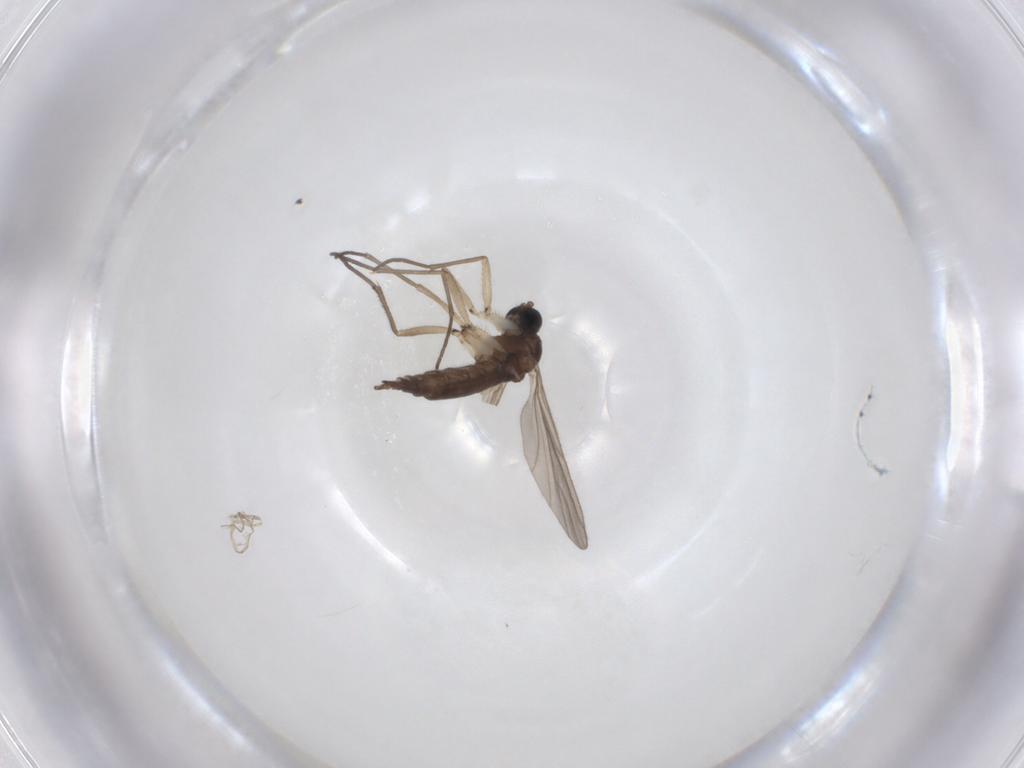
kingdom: Animalia
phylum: Arthropoda
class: Insecta
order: Diptera
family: Sciaridae
